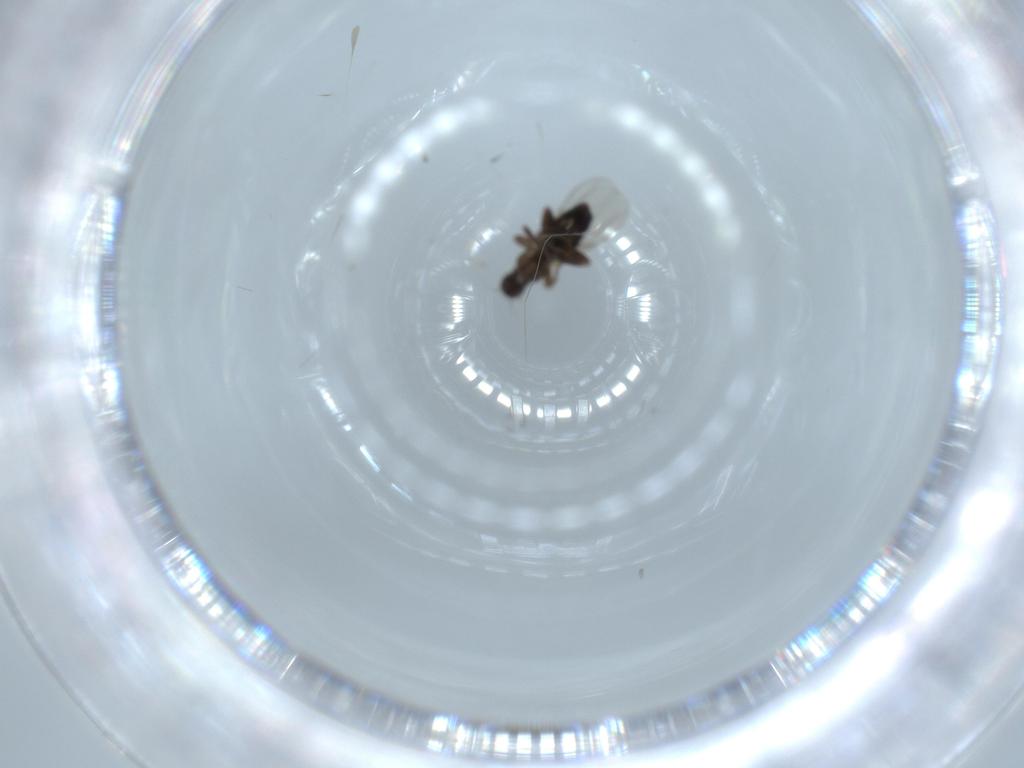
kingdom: Animalia
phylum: Arthropoda
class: Insecta
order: Diptera
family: Phoridae
